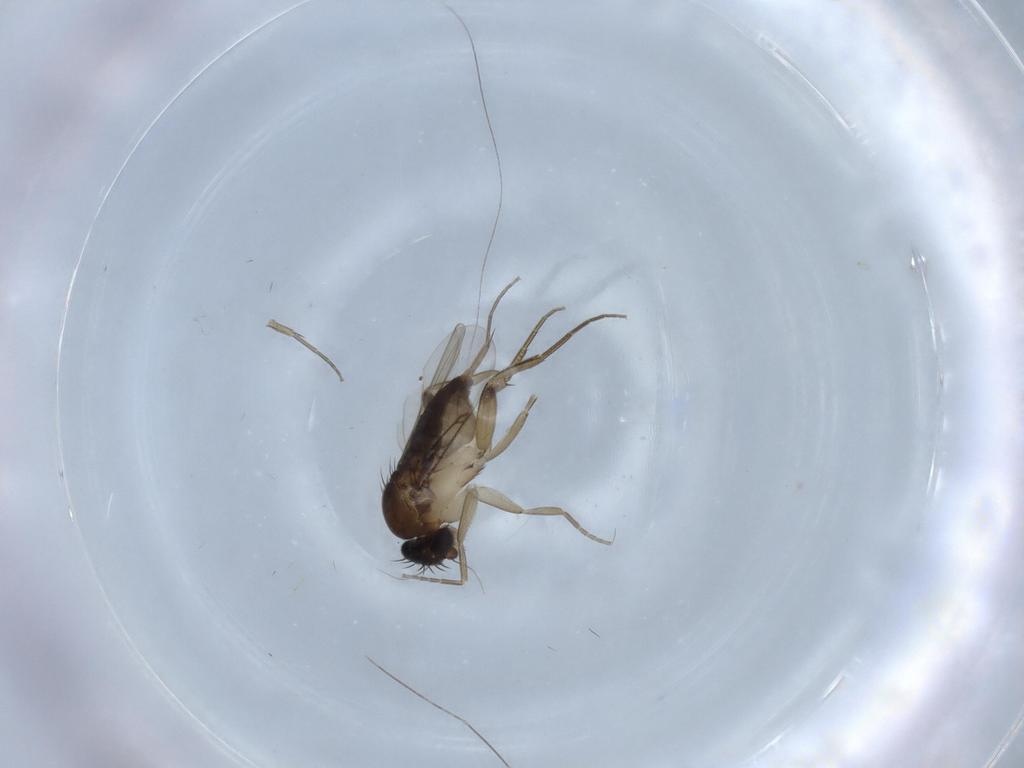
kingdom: Animalia
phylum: Arthropoda
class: Insecta
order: Diptera
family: Chironomidae
